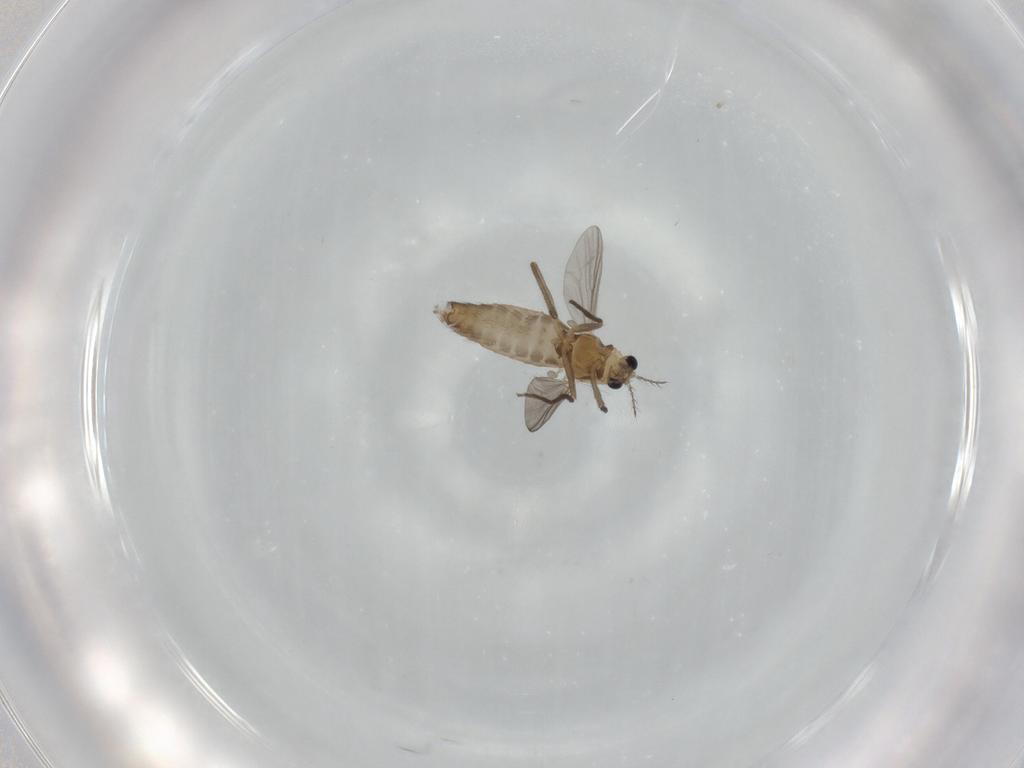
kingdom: Animalia
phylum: Arthropoda
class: Insecta
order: Diptera
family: Chironomidae
